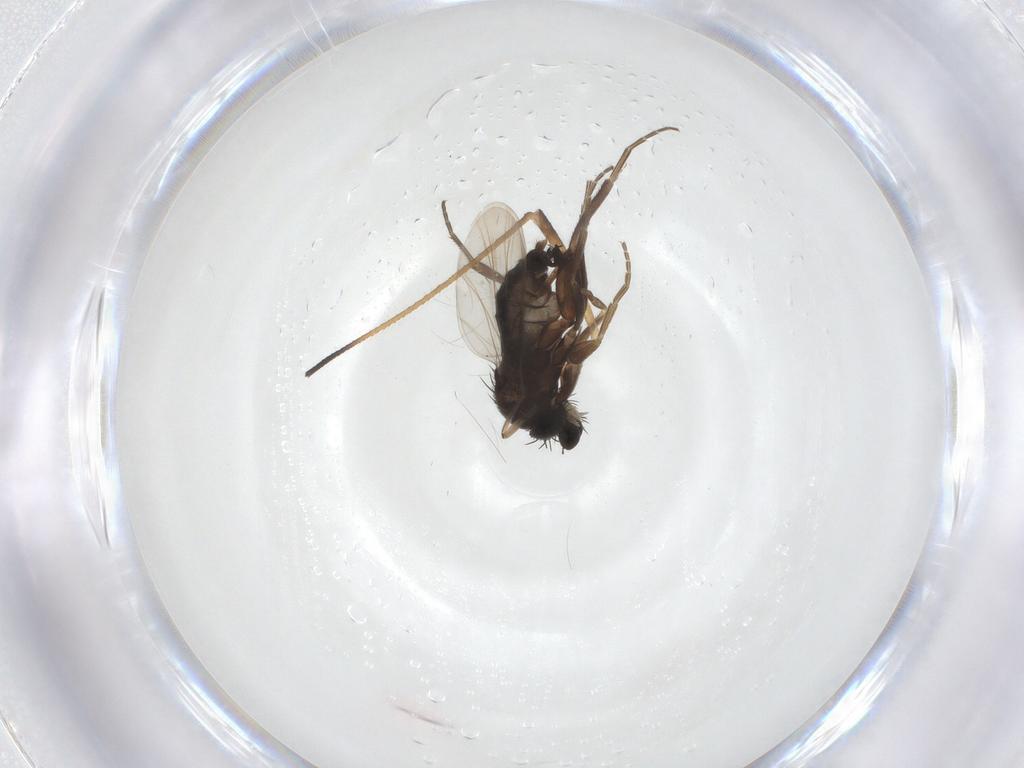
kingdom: Animalia
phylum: Arthropoda
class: Insecta
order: Diptera
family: Phoridae
